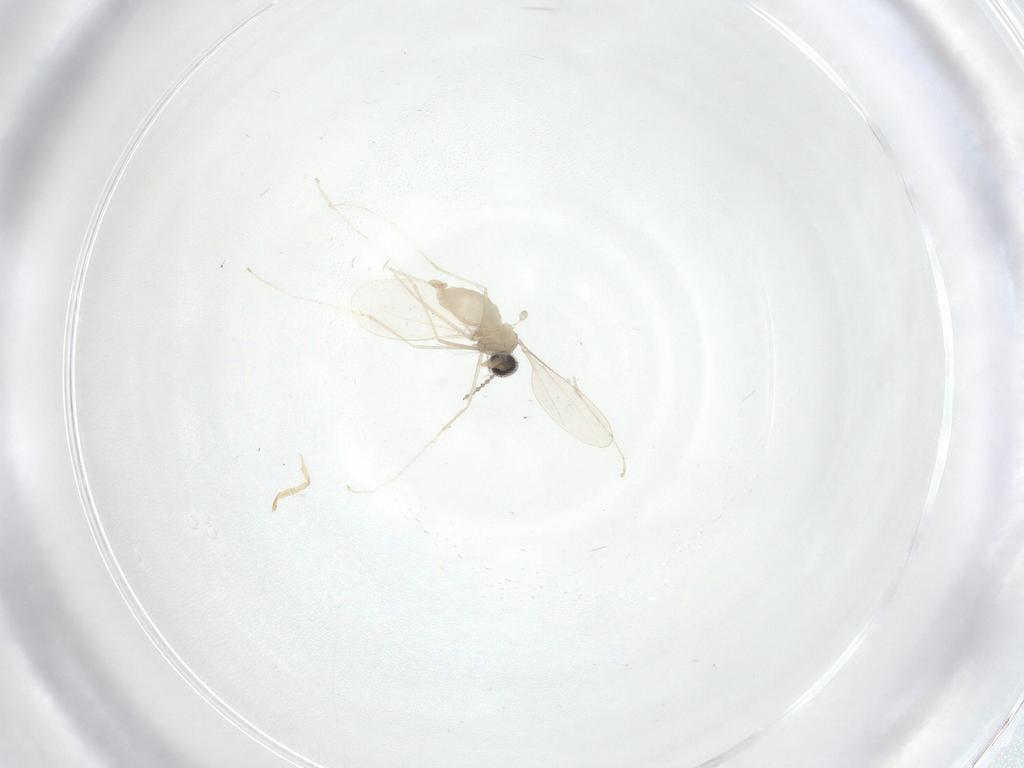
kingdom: Animalia
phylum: Arthropoda
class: Insecta
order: Diptera
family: Cecidomyiidae
